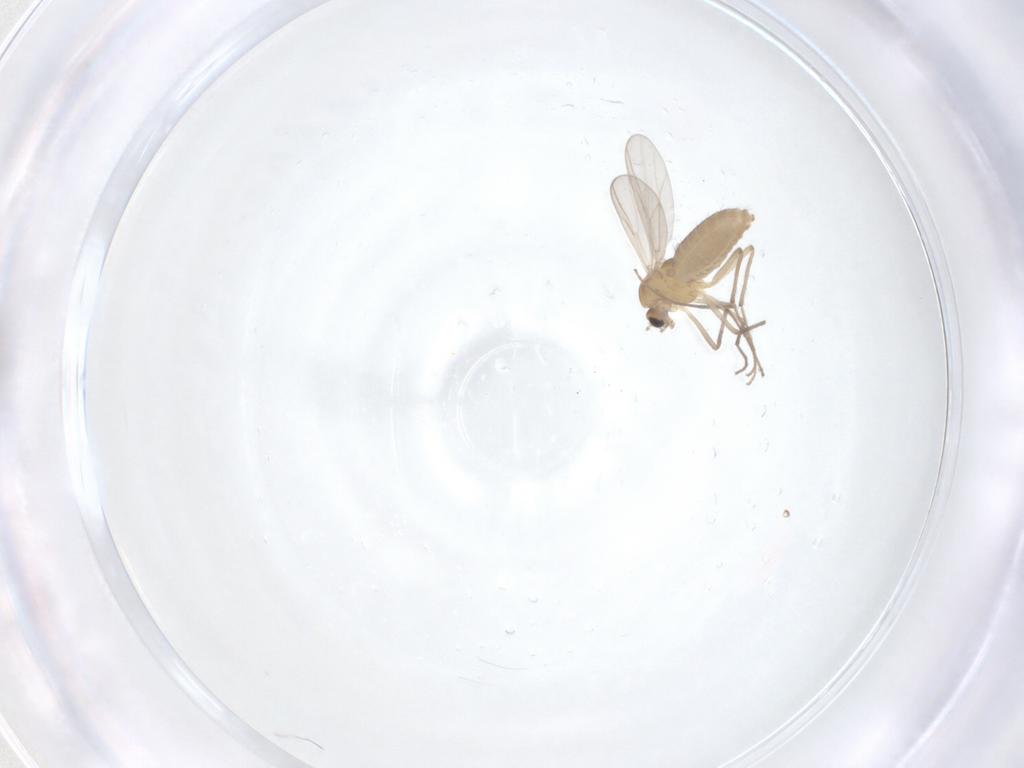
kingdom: Animalia
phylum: Arthropoda
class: Insecta
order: Diptera
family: Chironomidae
